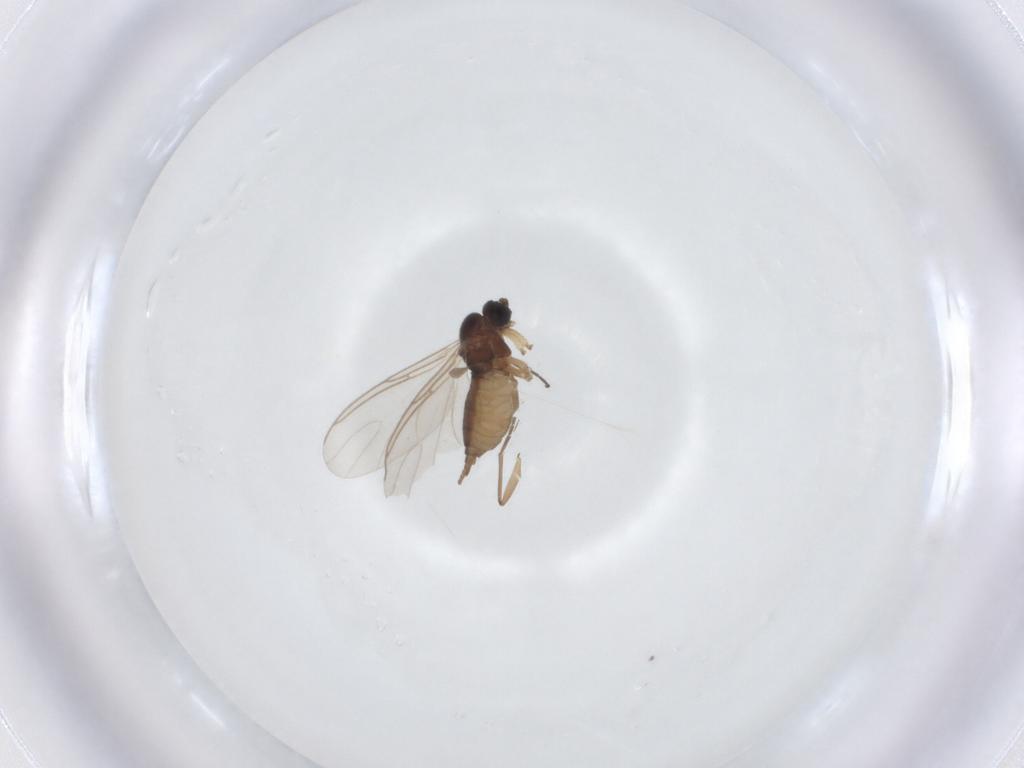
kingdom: Animalia
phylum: Arthropoda
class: Insecta
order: Diptera
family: Sciaridae
